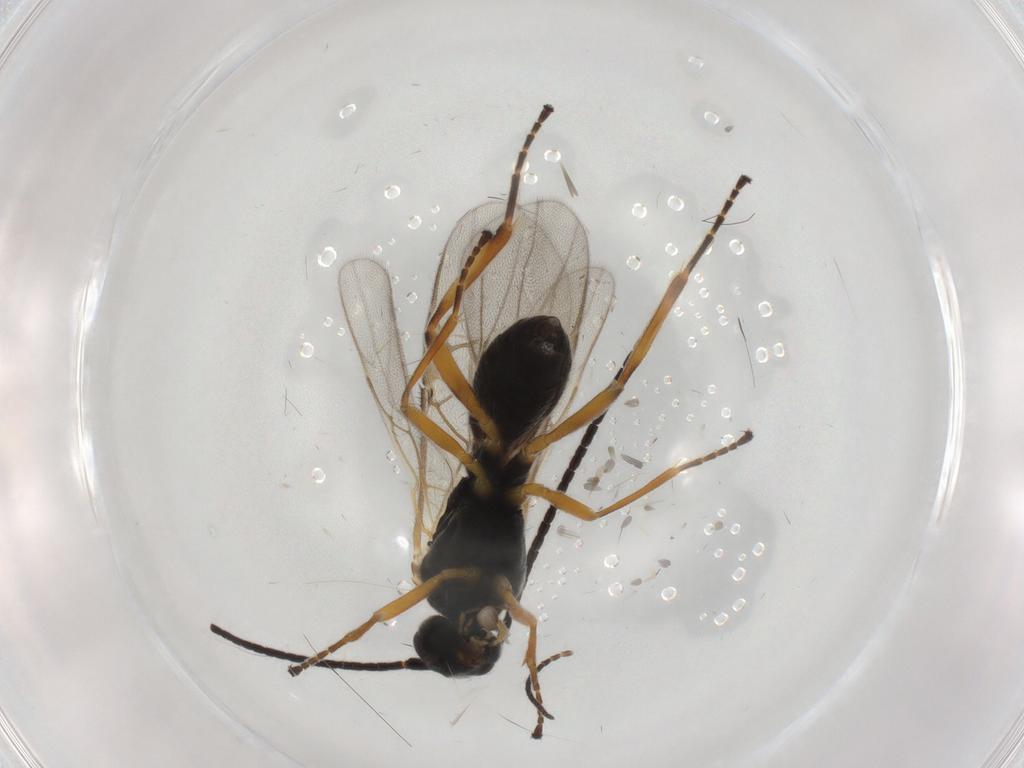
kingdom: Animalia
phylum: Arthropoda
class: Insecta
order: Hymenoptera
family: Braconidae
